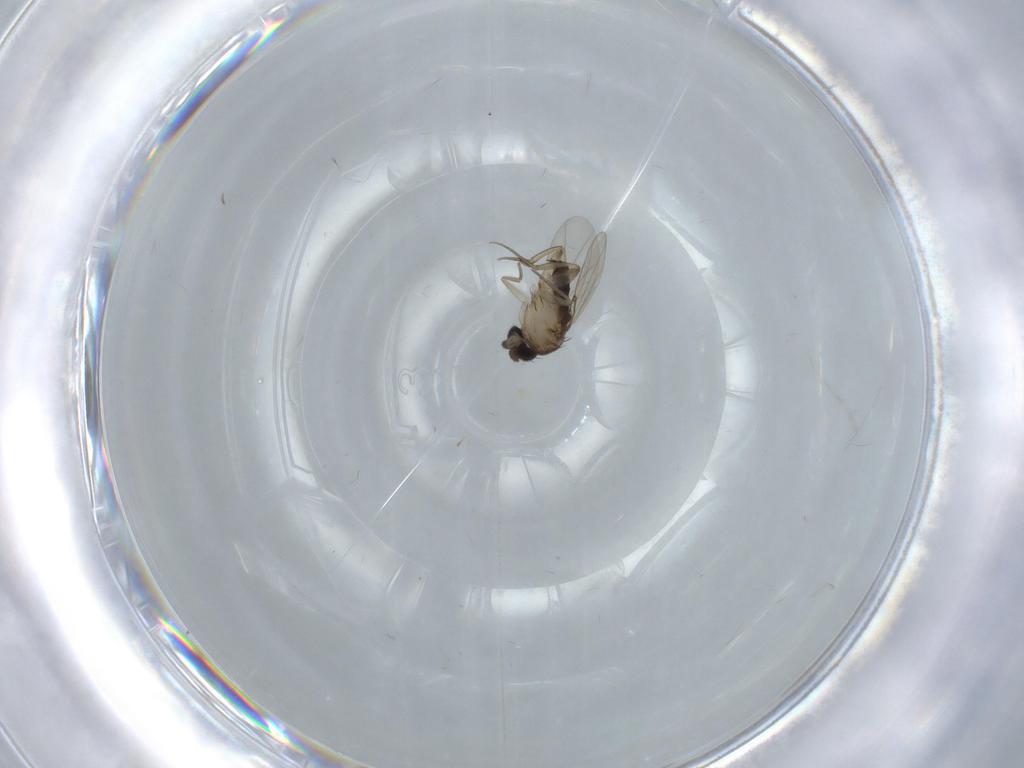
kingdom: Animalia
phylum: Arthropoda
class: Insecta
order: Diptera
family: Phoridae
